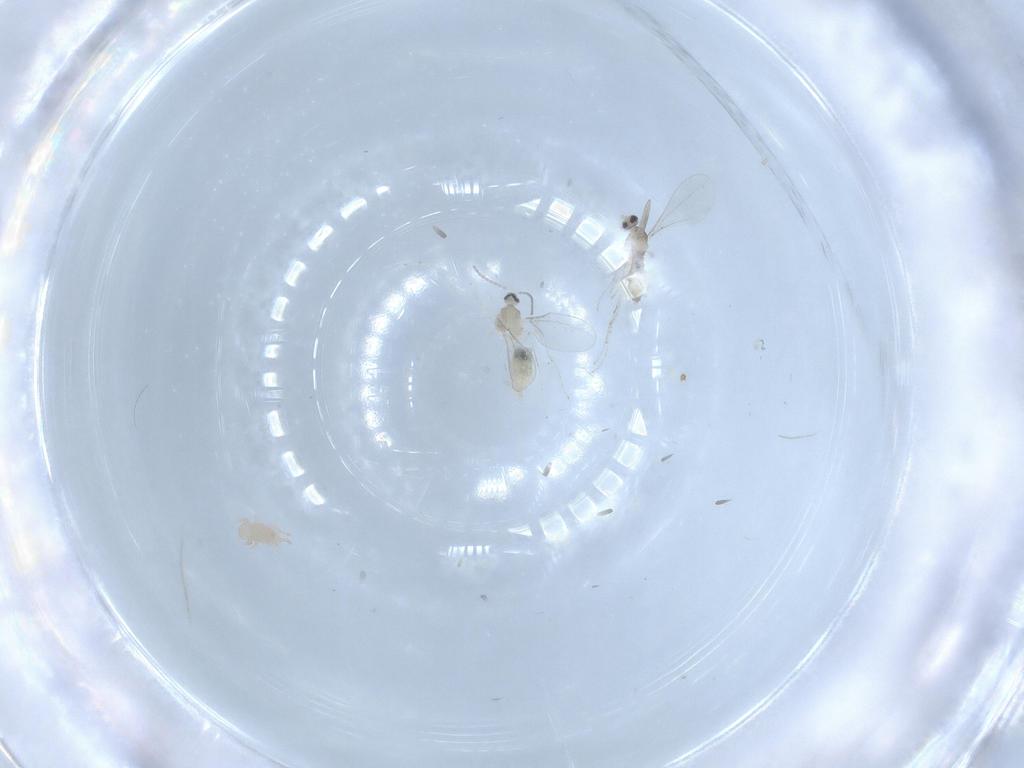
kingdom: Animalia
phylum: Arthropoda
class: Insecta
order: Diptera
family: Cecidomyiidae
